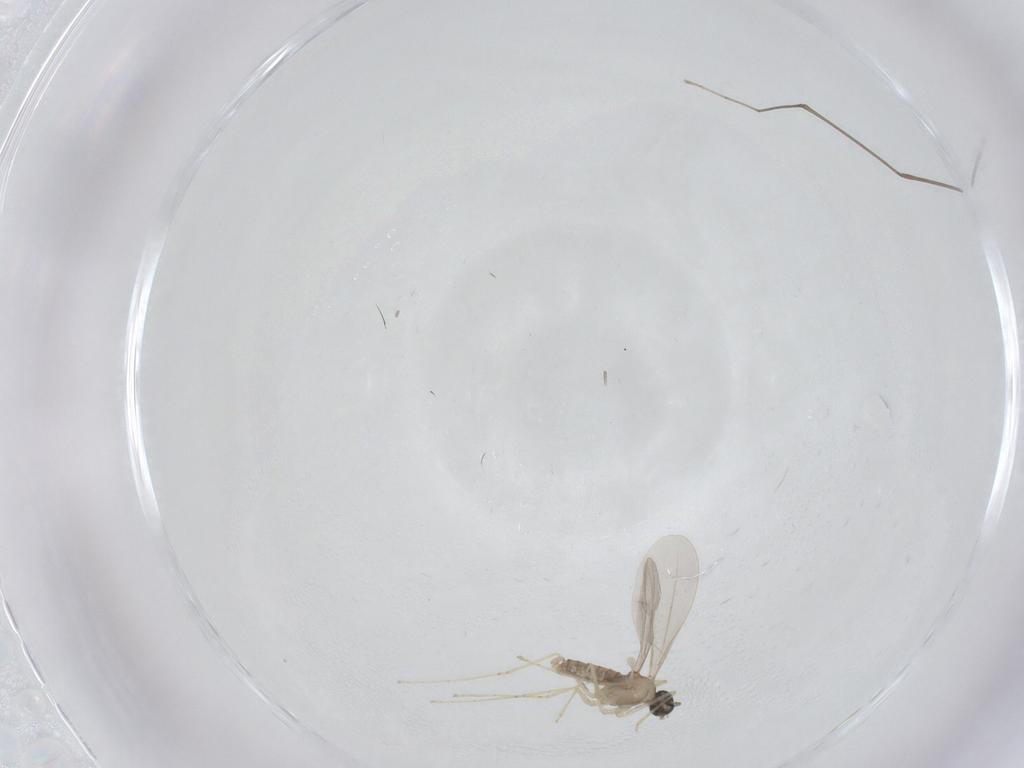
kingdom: Animalia
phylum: Arthropoda
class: Insecta
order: Diptera
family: Cecidomyiidae
